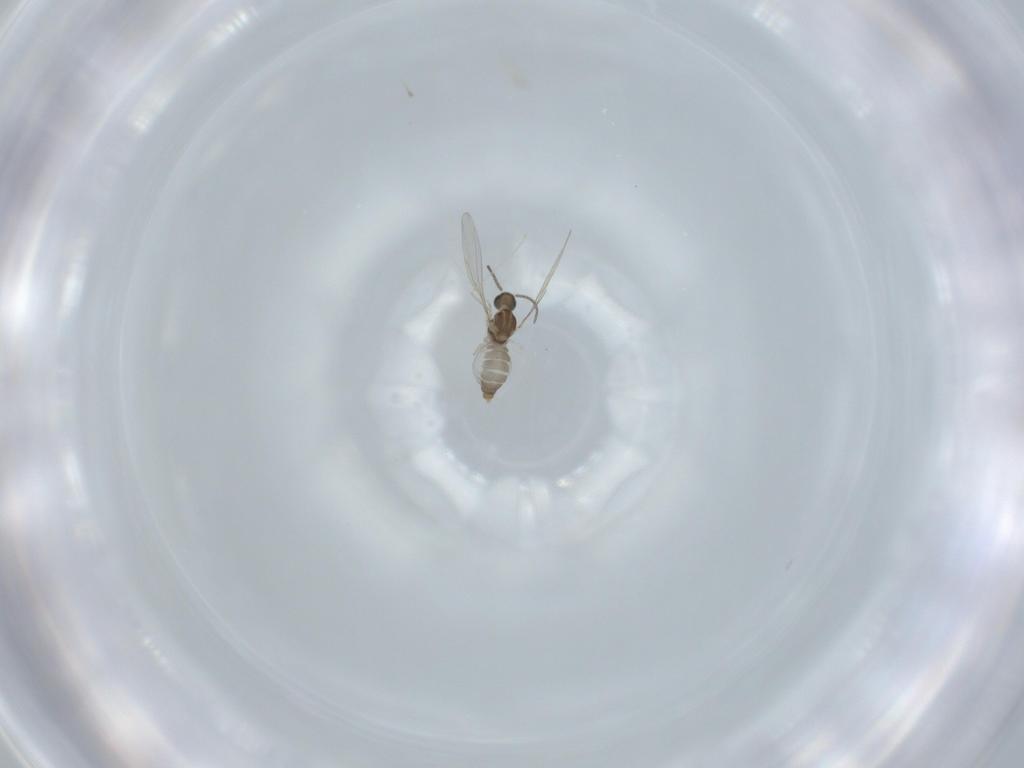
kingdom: Animalia
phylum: Arthropoda
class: Insecta
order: Diptera
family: Cecidomyiidae
